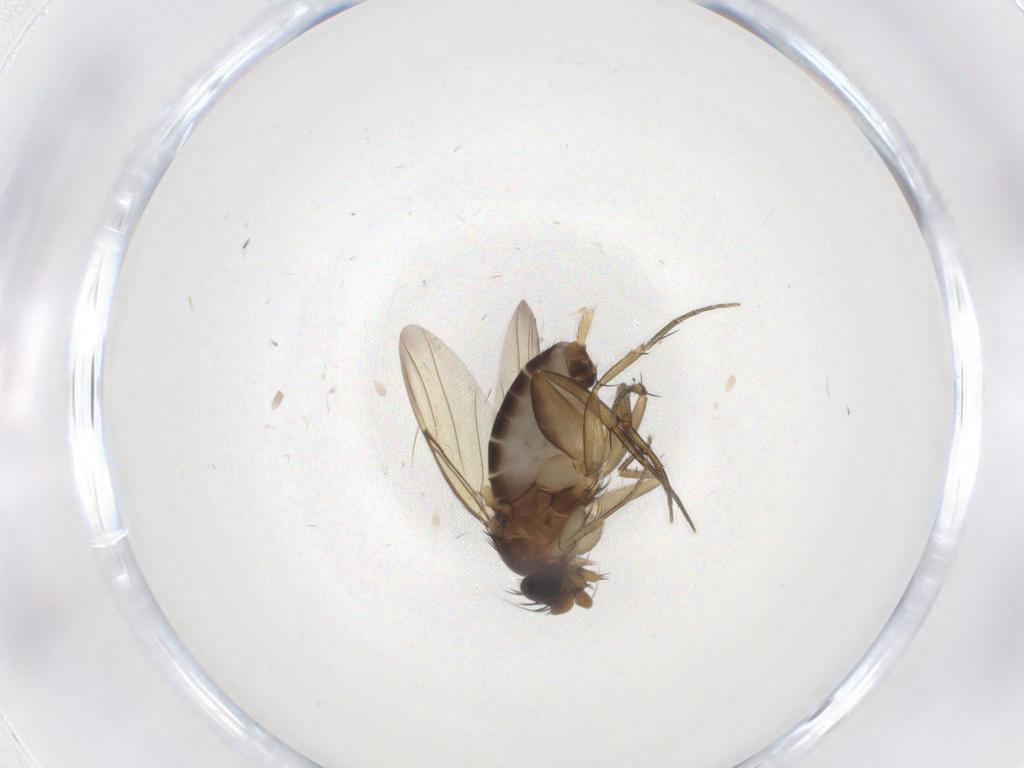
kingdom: Animalia
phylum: Arthropoda
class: Insecta
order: Diptera
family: Phoridae
